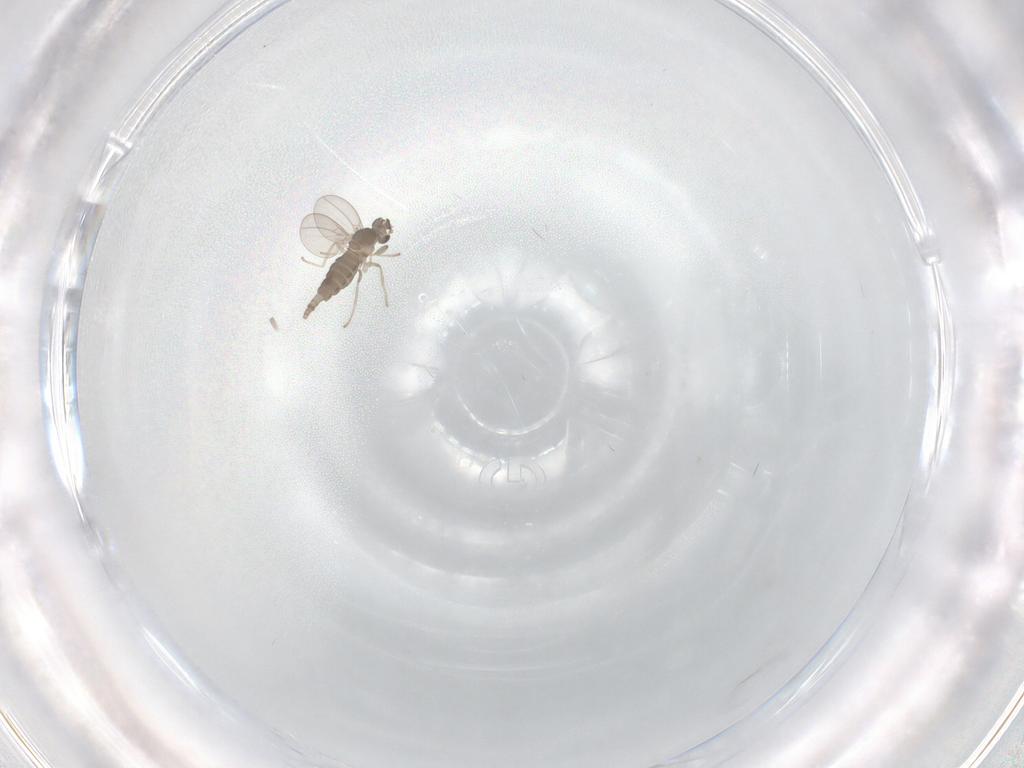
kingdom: Animalia
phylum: Arthropoda
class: Insecta
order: Diptera
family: Cecidomyiidae
